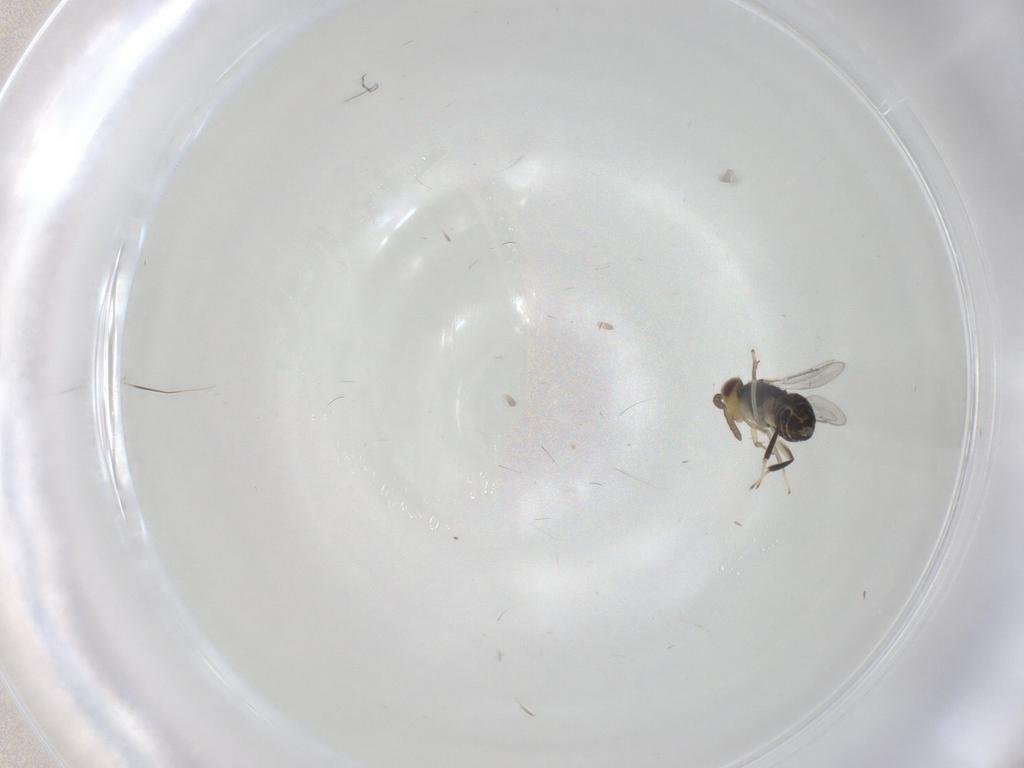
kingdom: Animalia
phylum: Arthropoda
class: Insecta
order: Hymenoptera
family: Aphelinidae
